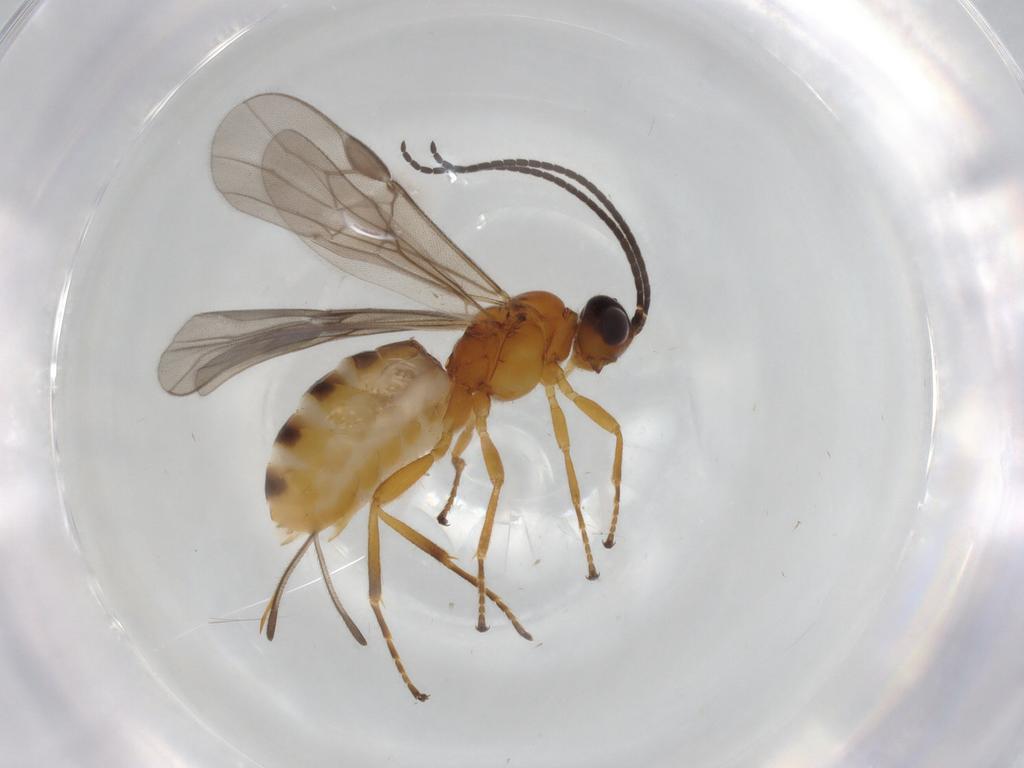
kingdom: Animalia
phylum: Arthropoda
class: Insecta
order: Hymenoptera
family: Braconidae
